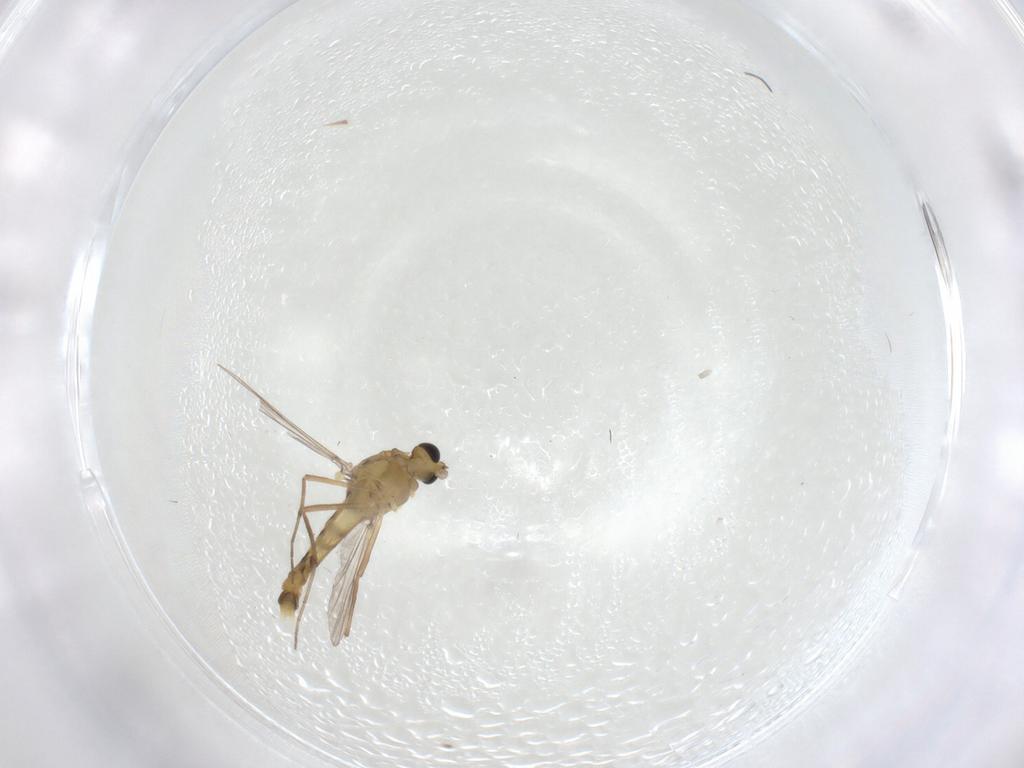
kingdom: Animalia
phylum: Arthropoda
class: Insecta
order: Diptera
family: Chironomidae
